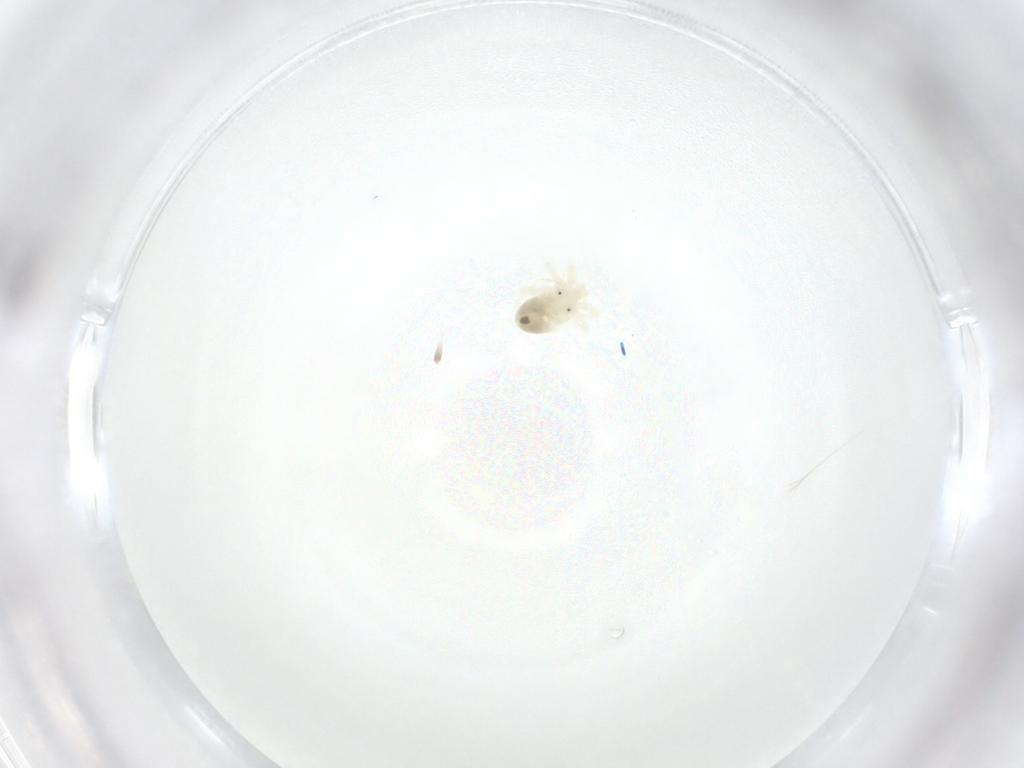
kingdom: Animalia
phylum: Arthropoda
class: Arachnida
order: Trombidiformes
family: Anystidae
